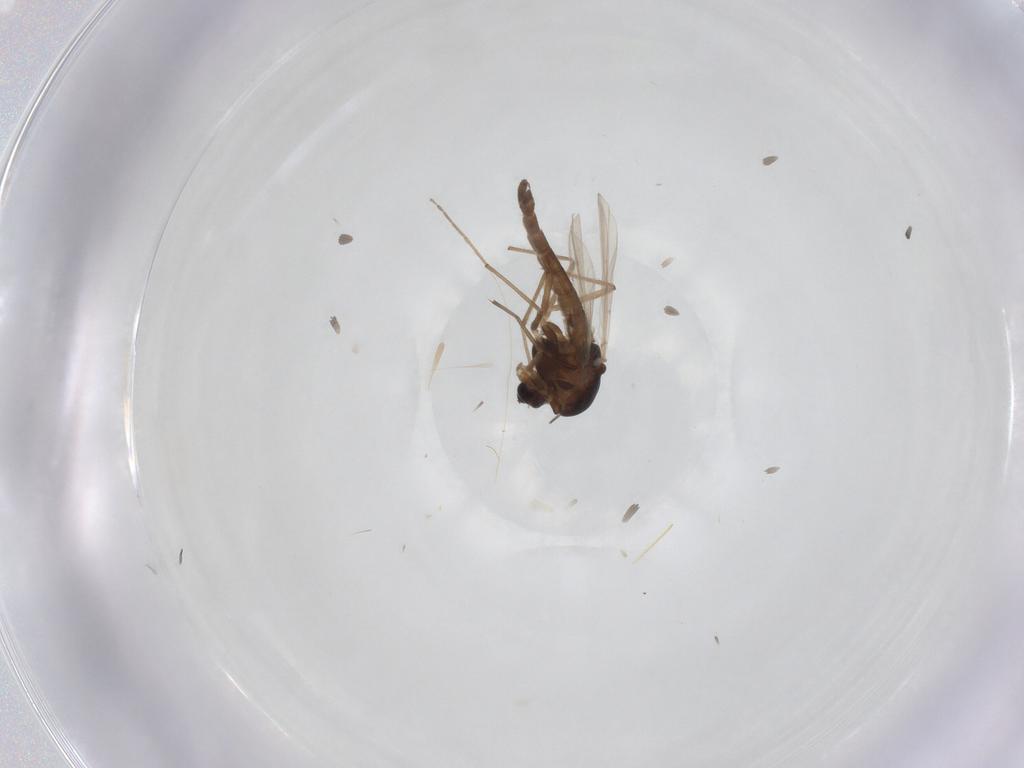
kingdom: Animalia
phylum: Arthropoda
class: Insecta
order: Diptera
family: Chironomidae
